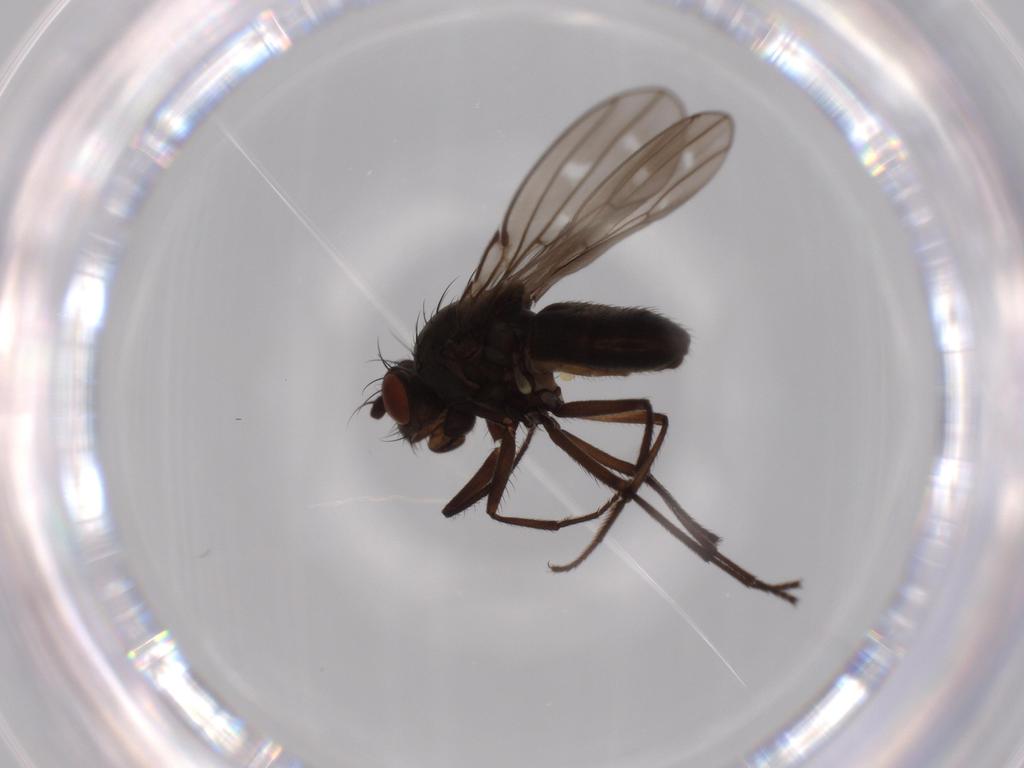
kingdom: Animalia
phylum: Arthropoda
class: Insecta
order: Diptera
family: Ephydridae
